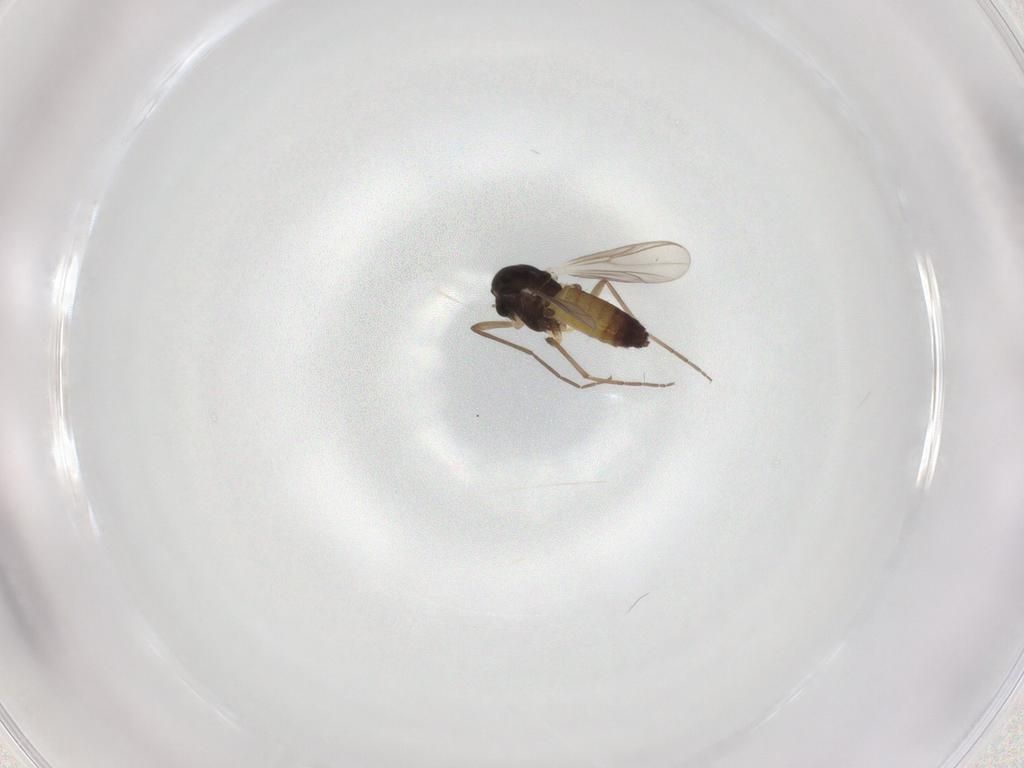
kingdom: Animalia
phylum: Arthropoda
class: Insecta
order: Diptera
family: Chironomidae
